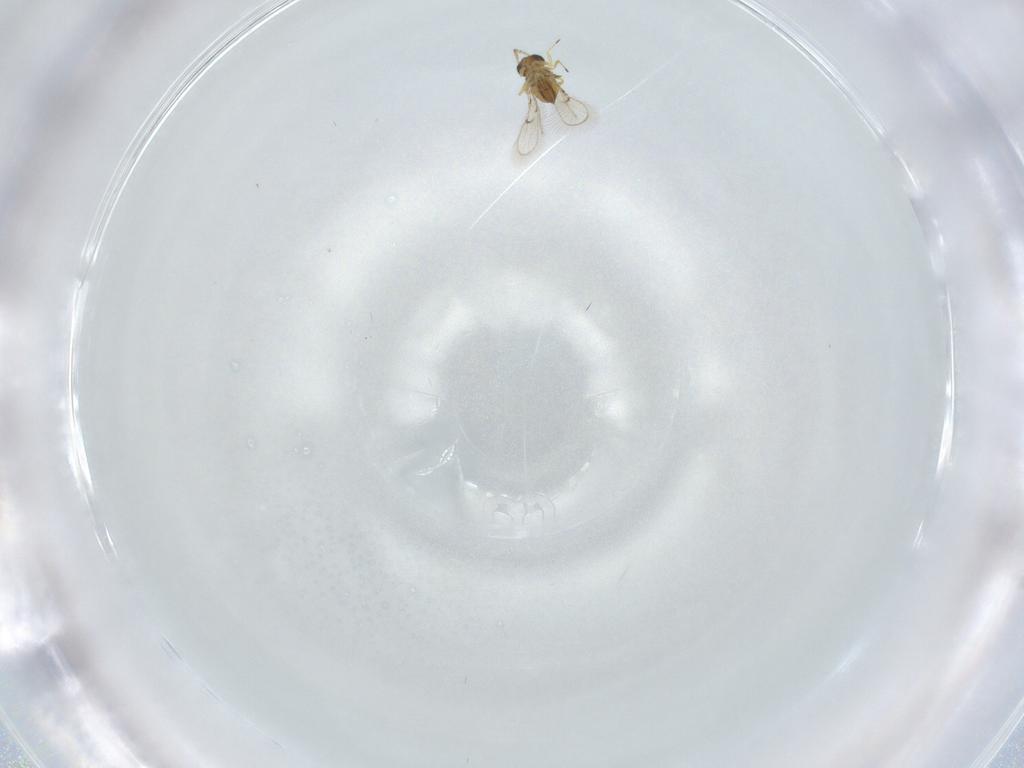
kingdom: Animalia
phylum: Arthropoda
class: Insecta
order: Hymenoptera
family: Trichogrammatidae
